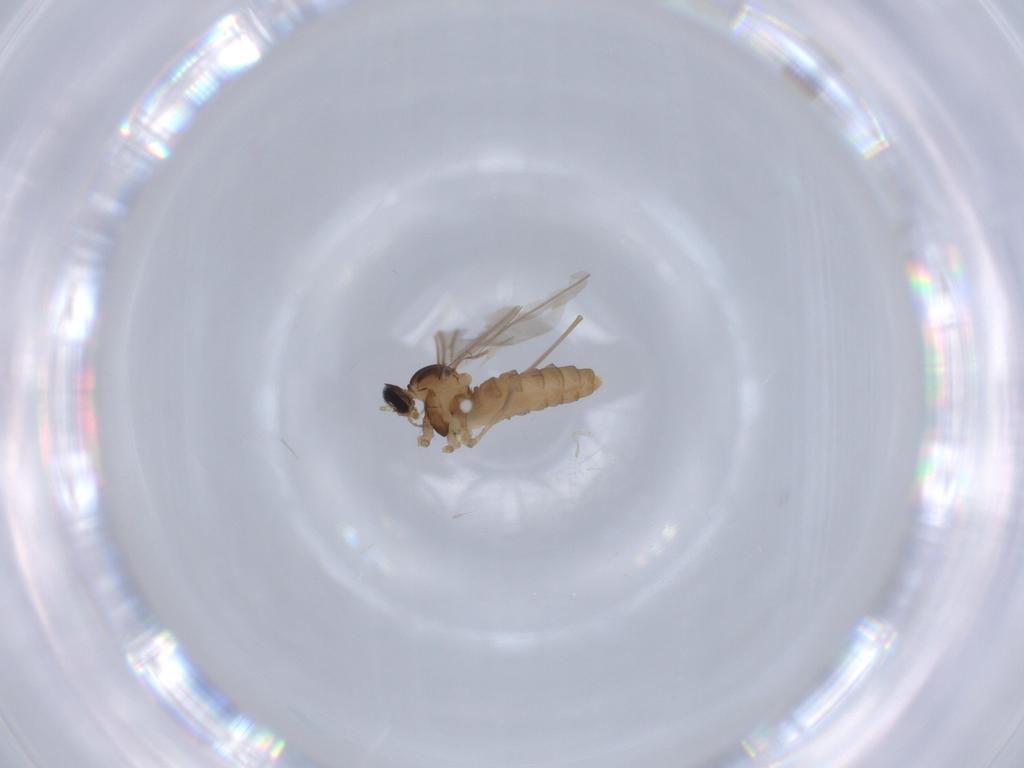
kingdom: Animalia
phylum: Arthropoda
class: Insecta
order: Diptera
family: Cecidomyiidae
